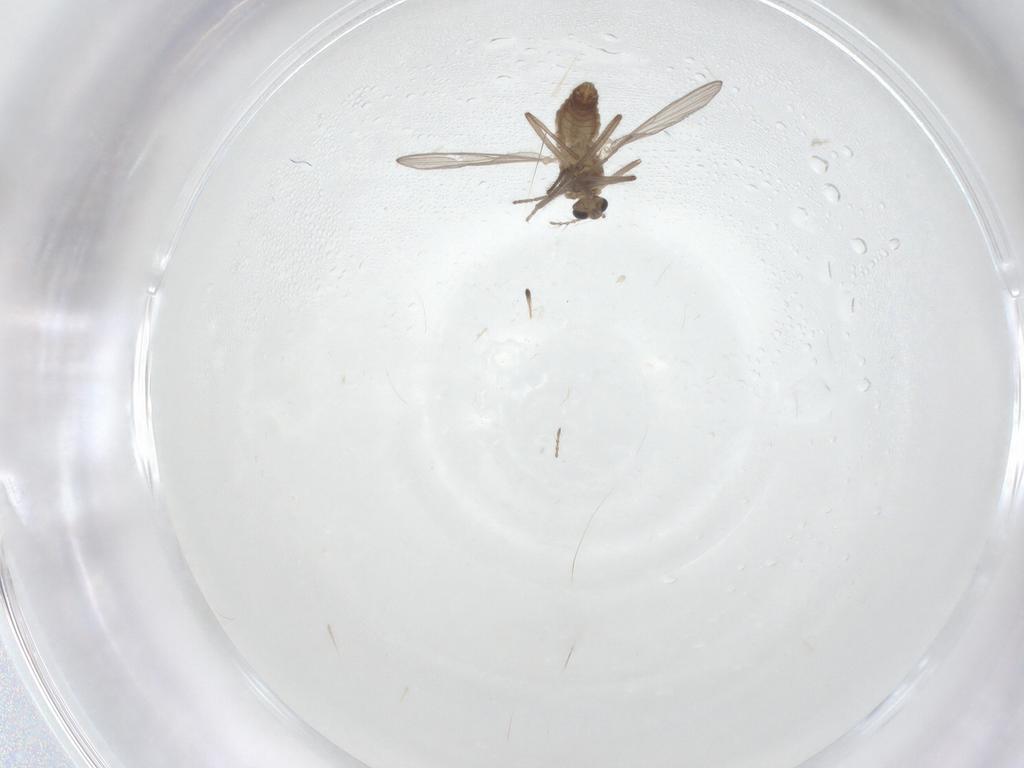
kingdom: Animalia
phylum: Arthropoda
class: Insecta
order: Diptera
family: Chironomidae
